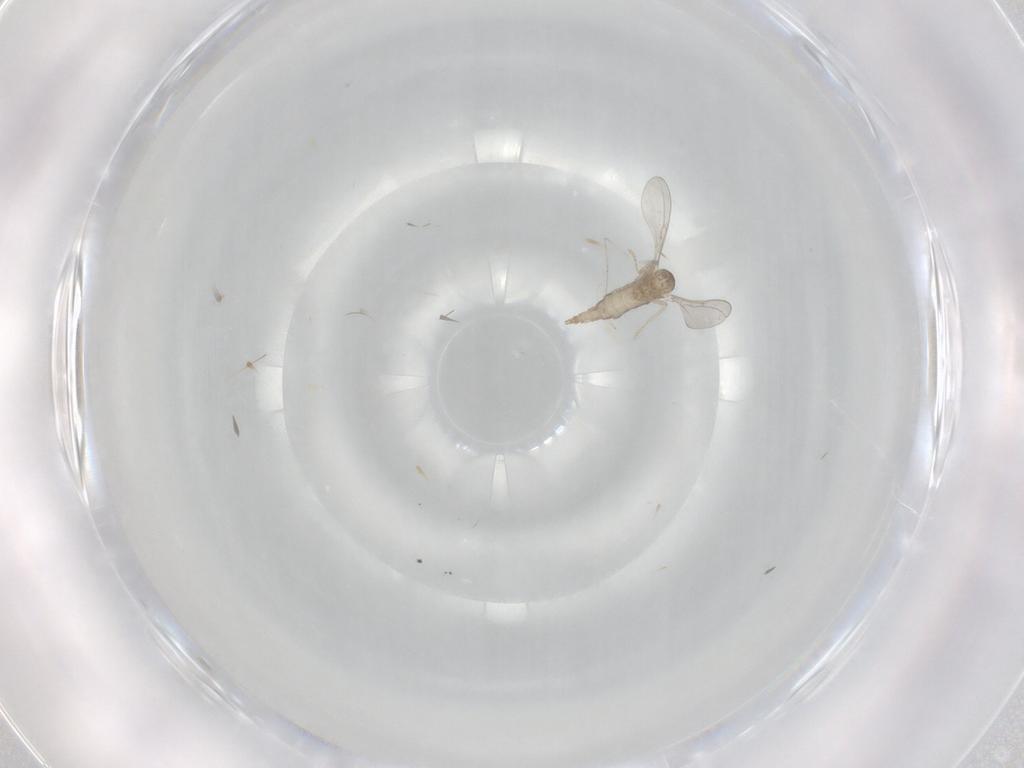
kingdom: Animalia
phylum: Arthropoda
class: Insecta
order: Diptera
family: Cecidomyiidae
